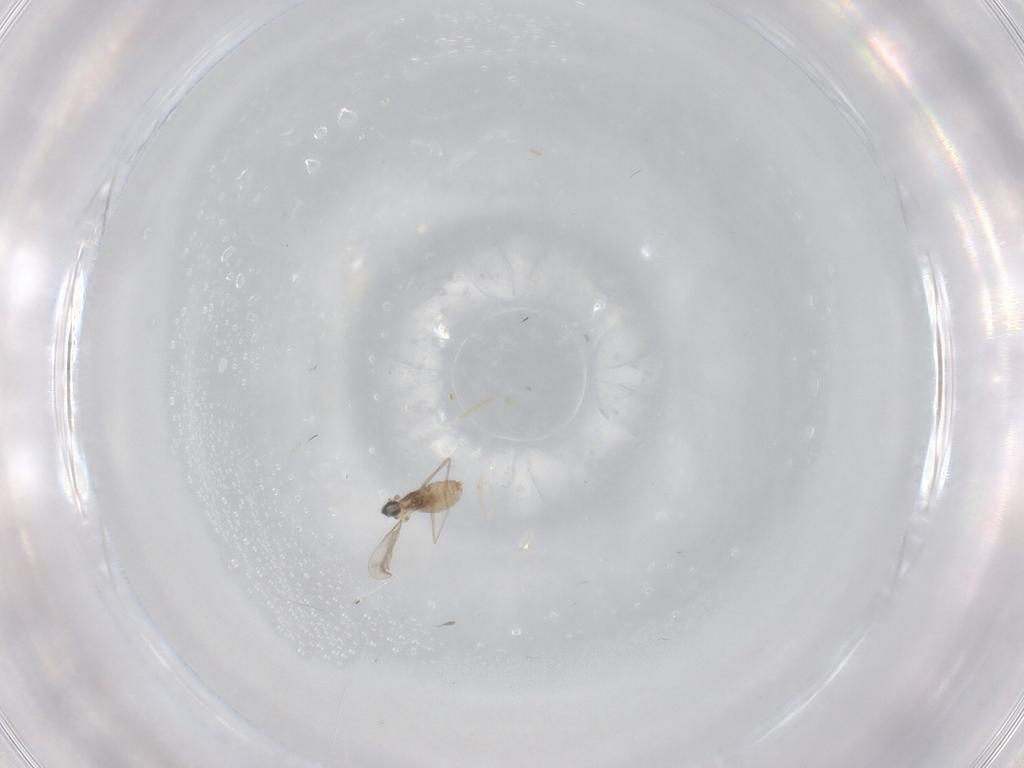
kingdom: Animalia
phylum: Arthropoda
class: Insecta
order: Diptera
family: Cecidomyiidae
